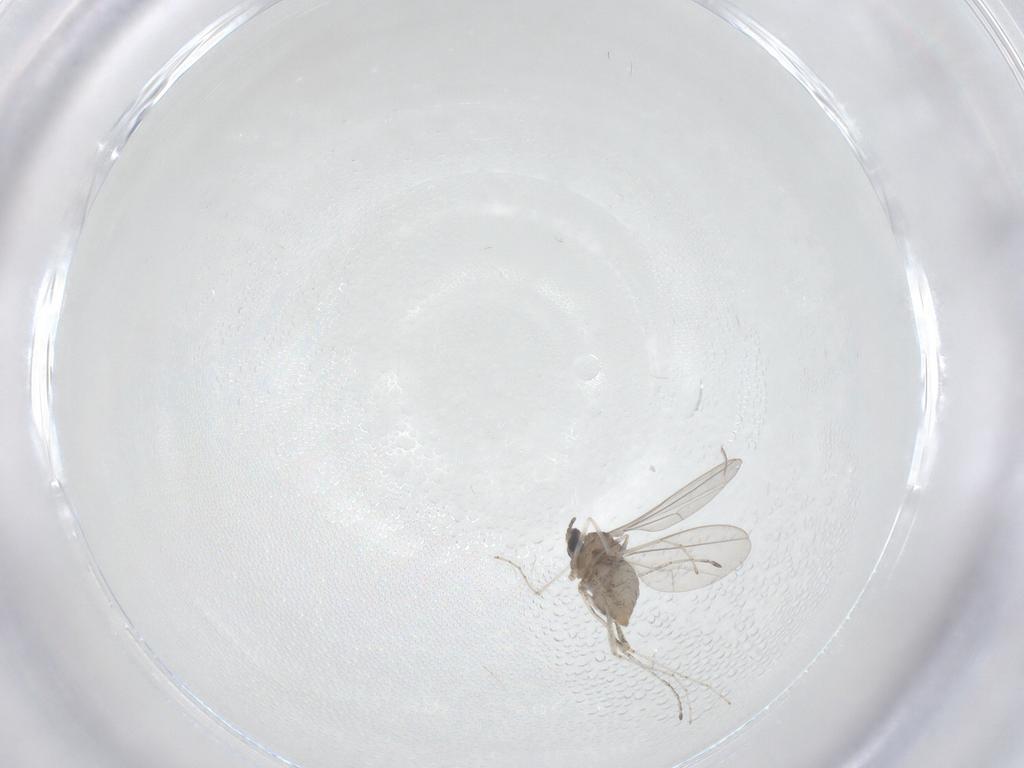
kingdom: Animalia
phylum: Arthropoda
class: Insecta
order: Diptera
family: Cecidomyiidae
